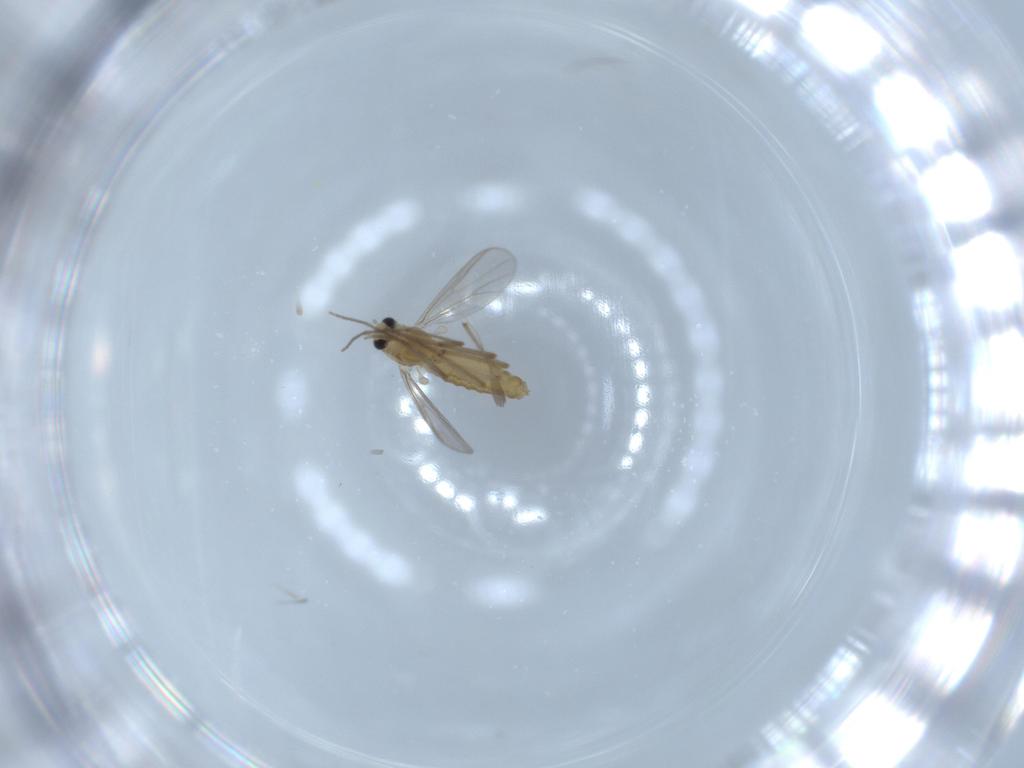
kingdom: Animalia
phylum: Arthropoda
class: Insecta
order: Diptera
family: Chironomidae
